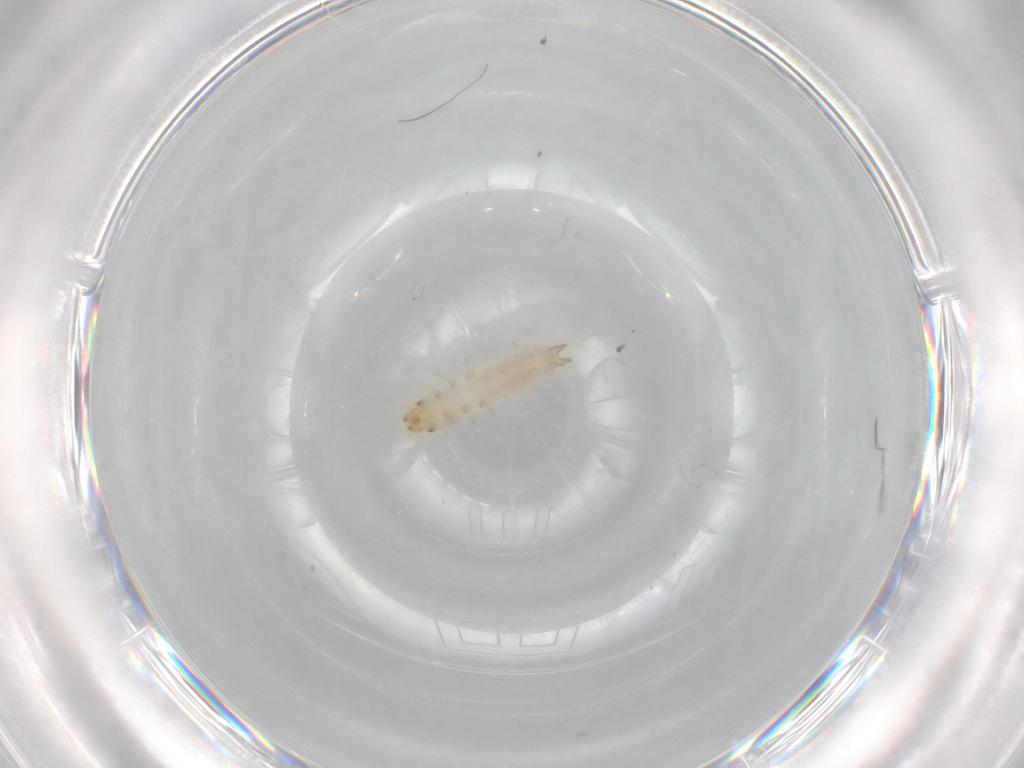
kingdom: Animalia
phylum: Arthropoda
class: Insecta
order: Coleoptera
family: Nitidulidae
